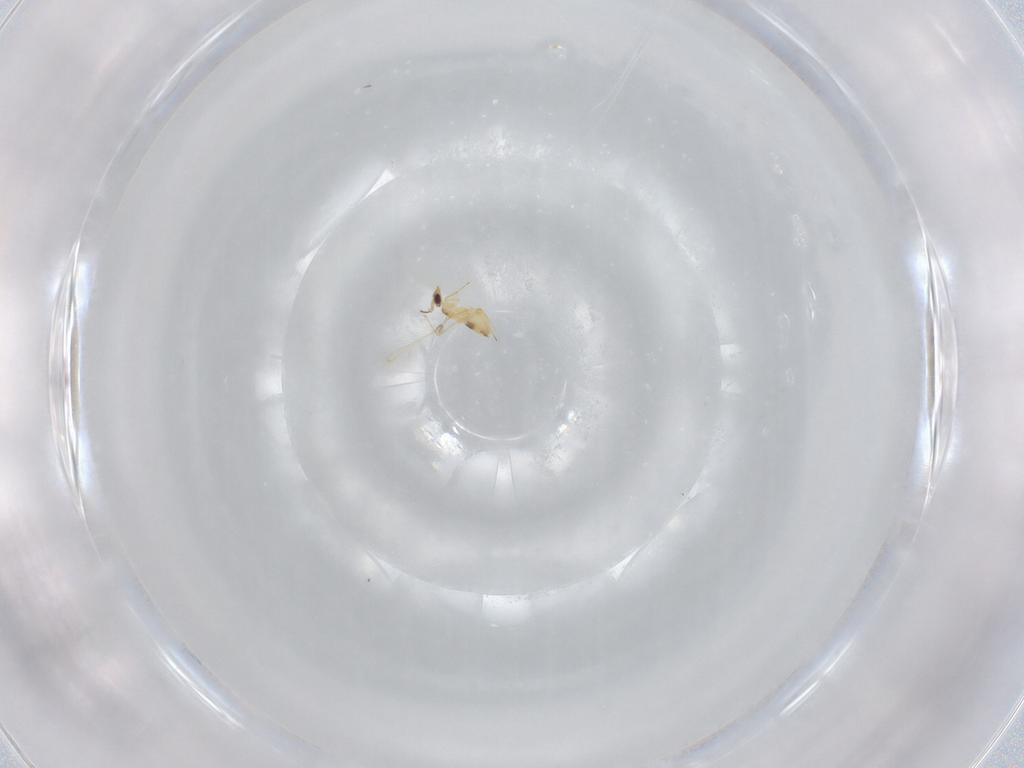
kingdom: Animalia
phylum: Arthropoda
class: Insecta
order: Hymenoptera
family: Mymaridae
